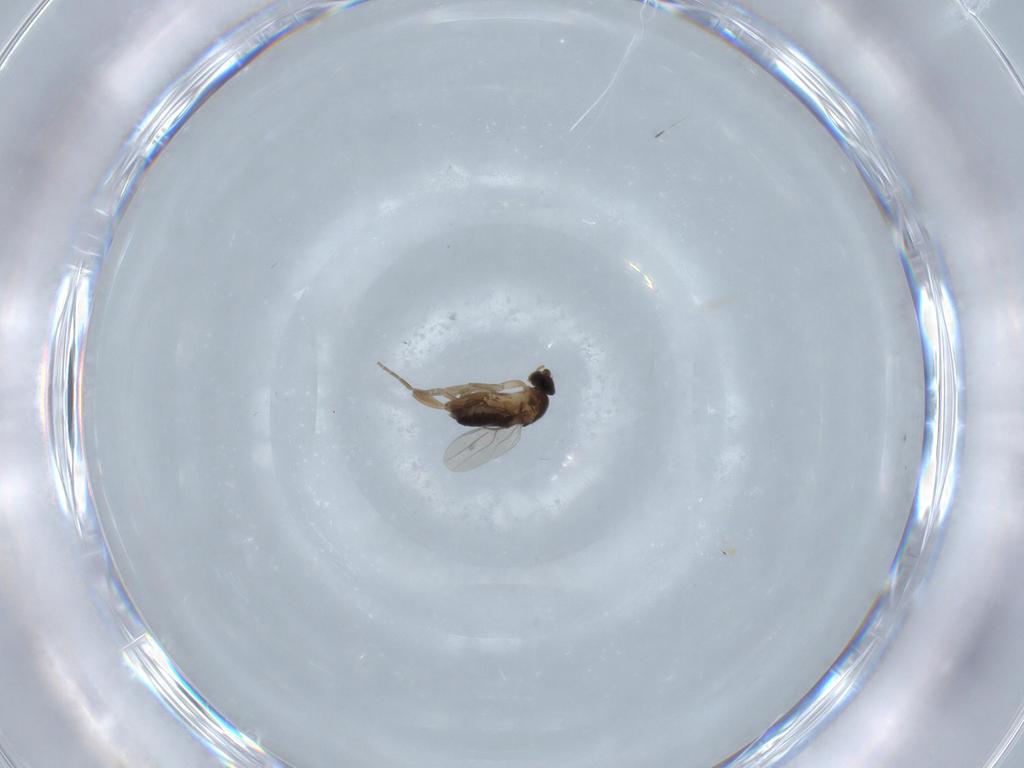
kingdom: Animalia
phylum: Arthropoda
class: Insecta
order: Diptera
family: Phoridae
